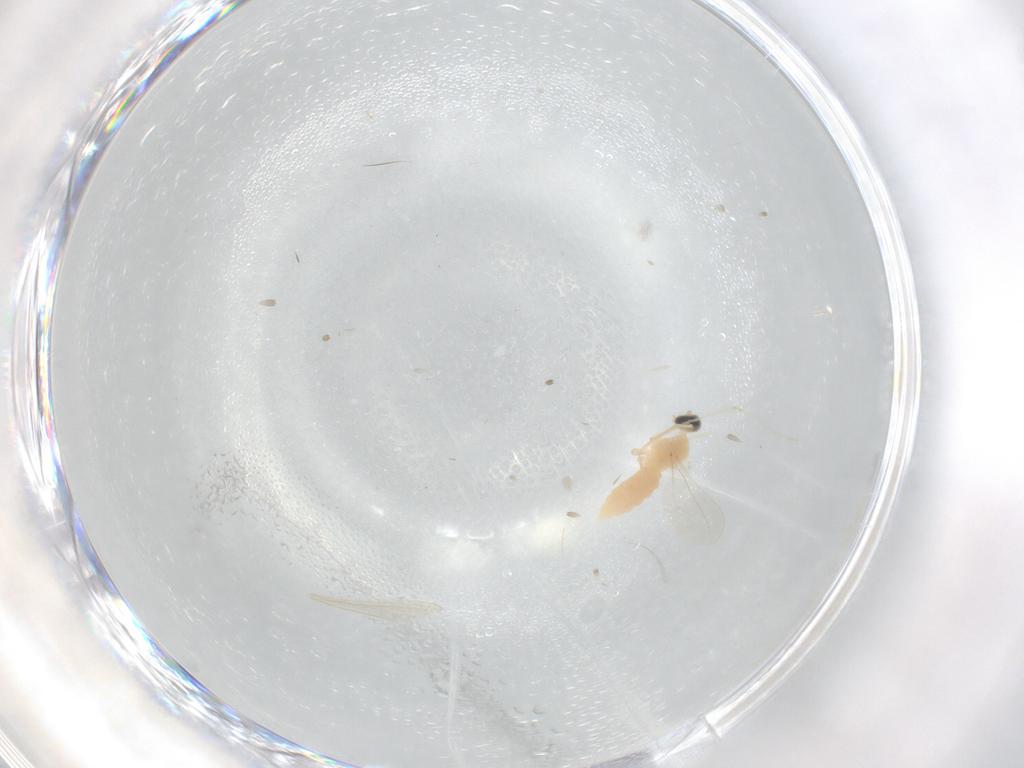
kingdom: Animalia
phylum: Arthropoda
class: Insecta
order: Diptera
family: Cecidomyiidae
